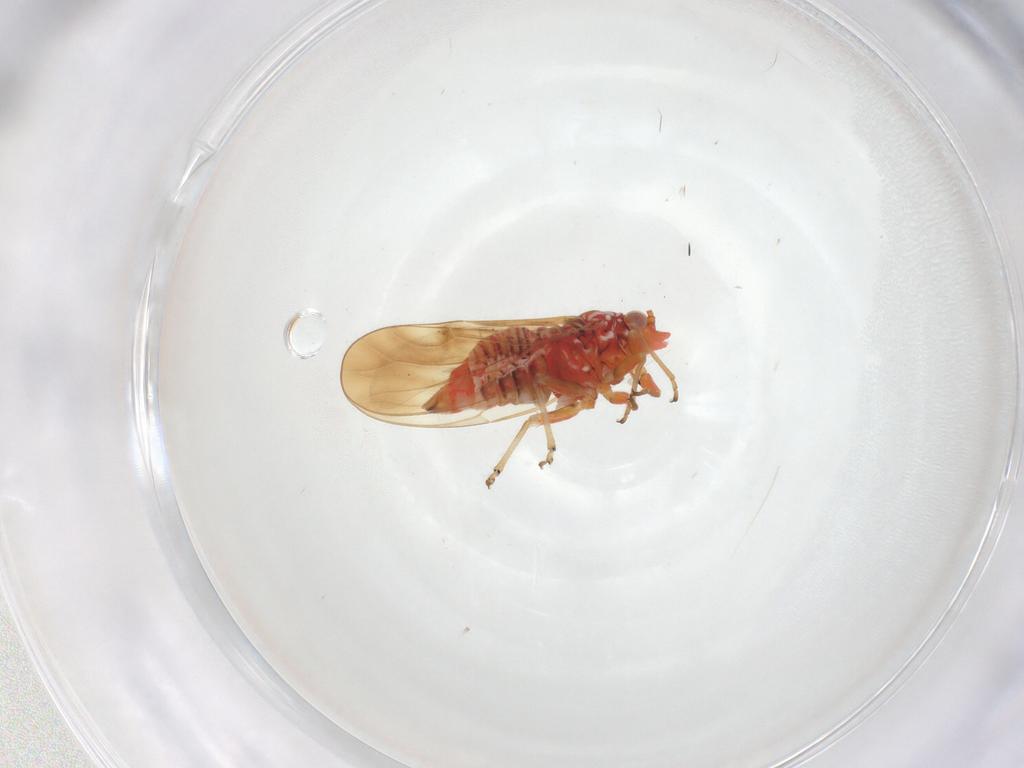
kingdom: Animalia
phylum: Arthropoda
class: Insecta
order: Hemiptera
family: Psyllidae
